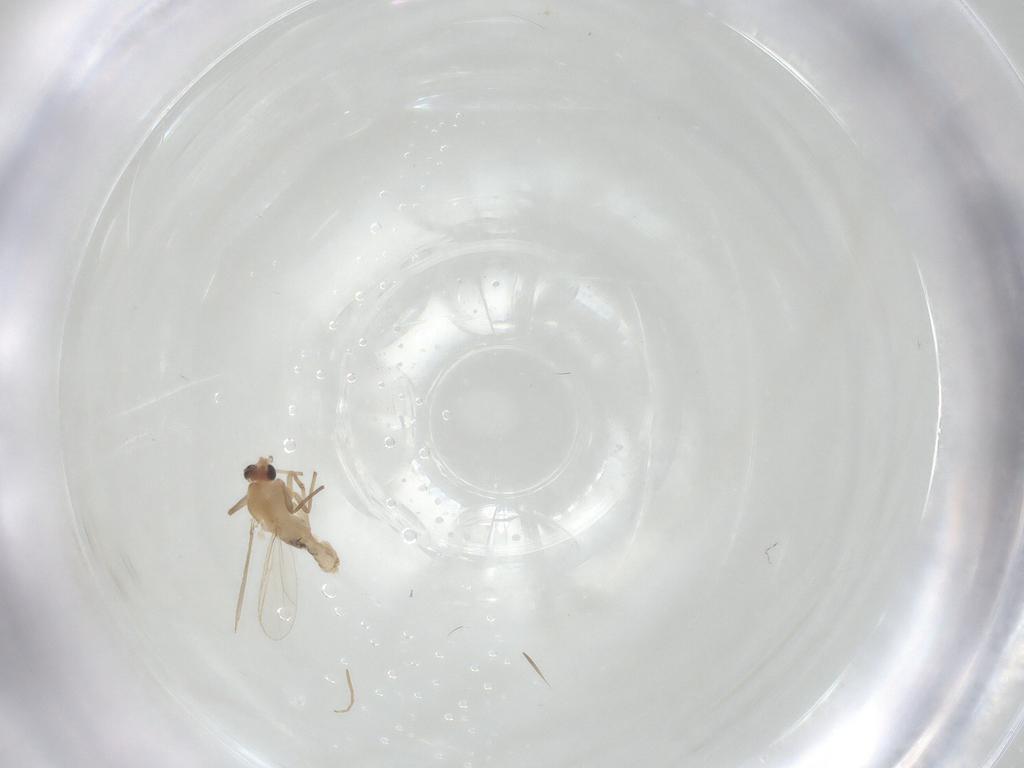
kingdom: Animalia
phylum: Arthropoda
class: Insecta
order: Diptera
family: Chironomidae
